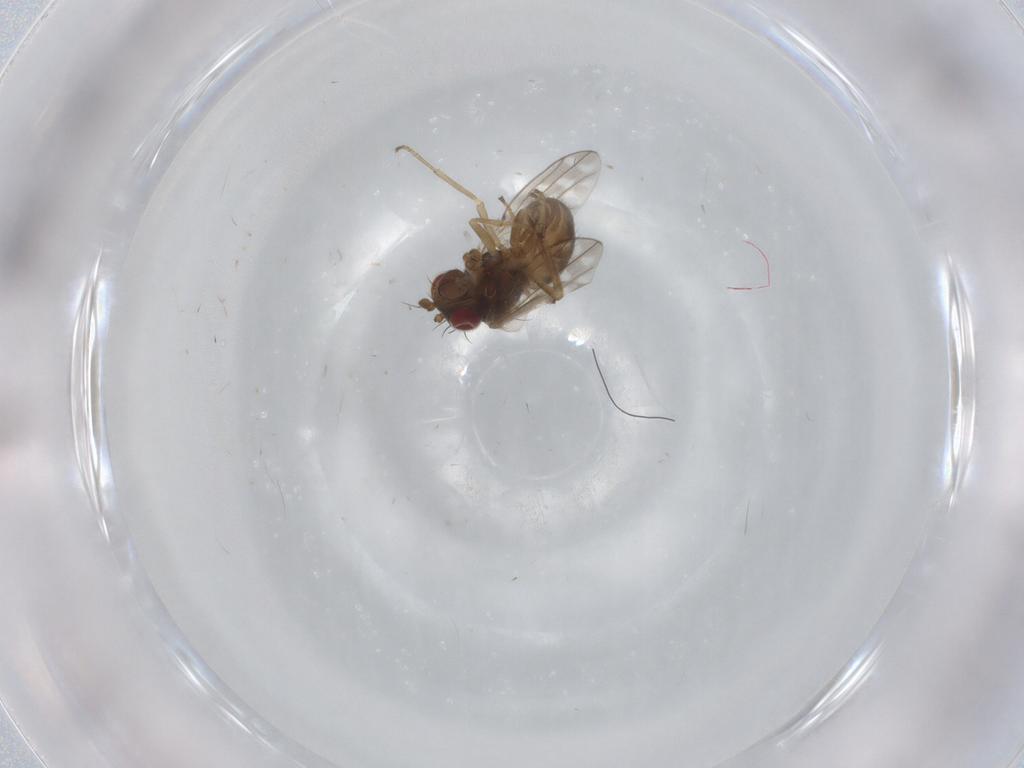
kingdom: Animalia
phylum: Arthropoda
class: Insecta
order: Diptera
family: Ephydridae
